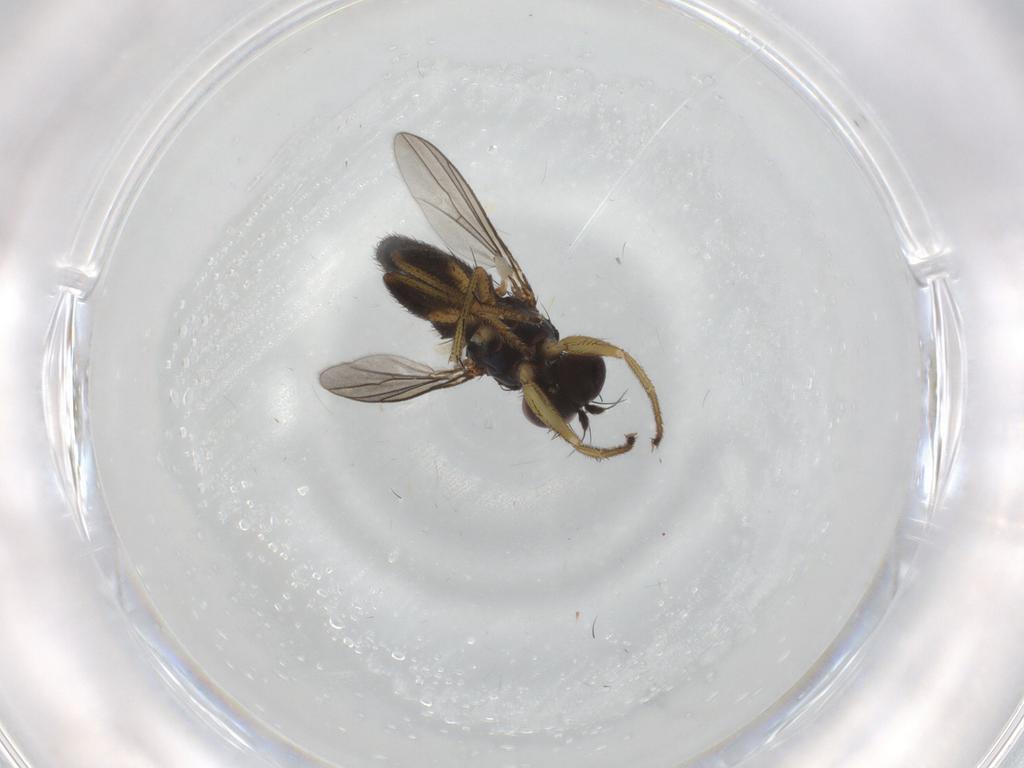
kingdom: Animalia
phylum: Arthropoda
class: Insecta
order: Diptera
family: Dolichopodidae
